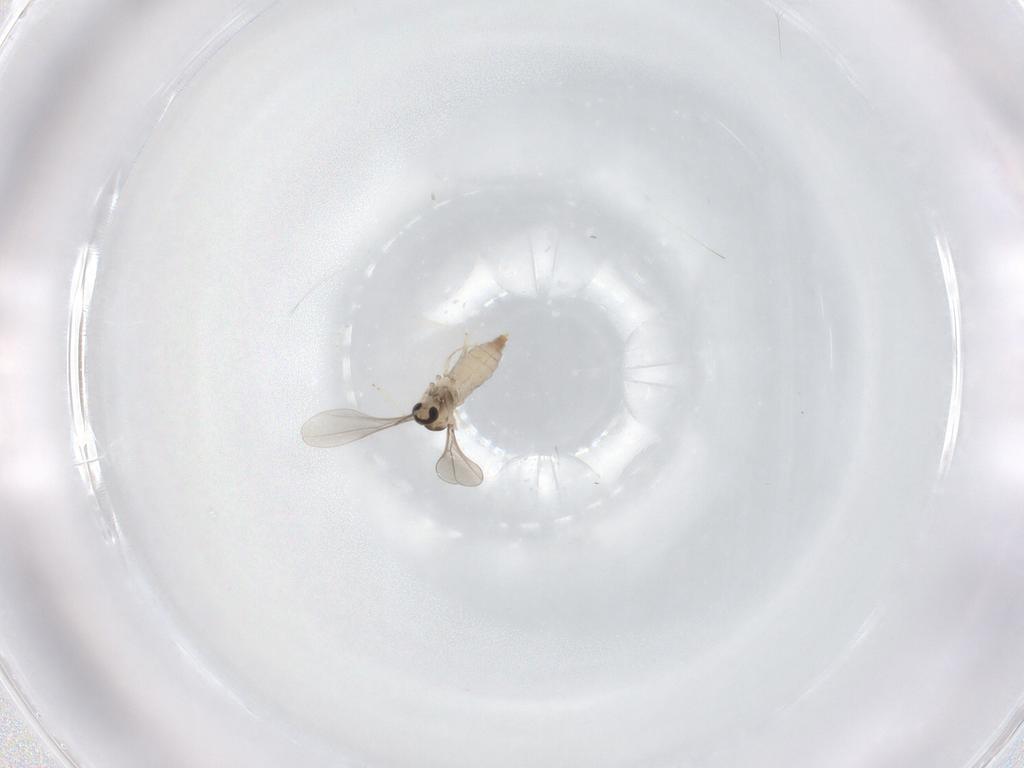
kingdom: Animalia
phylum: Arthropoda
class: Insecta
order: Diptera
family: Cecidomyiidae
